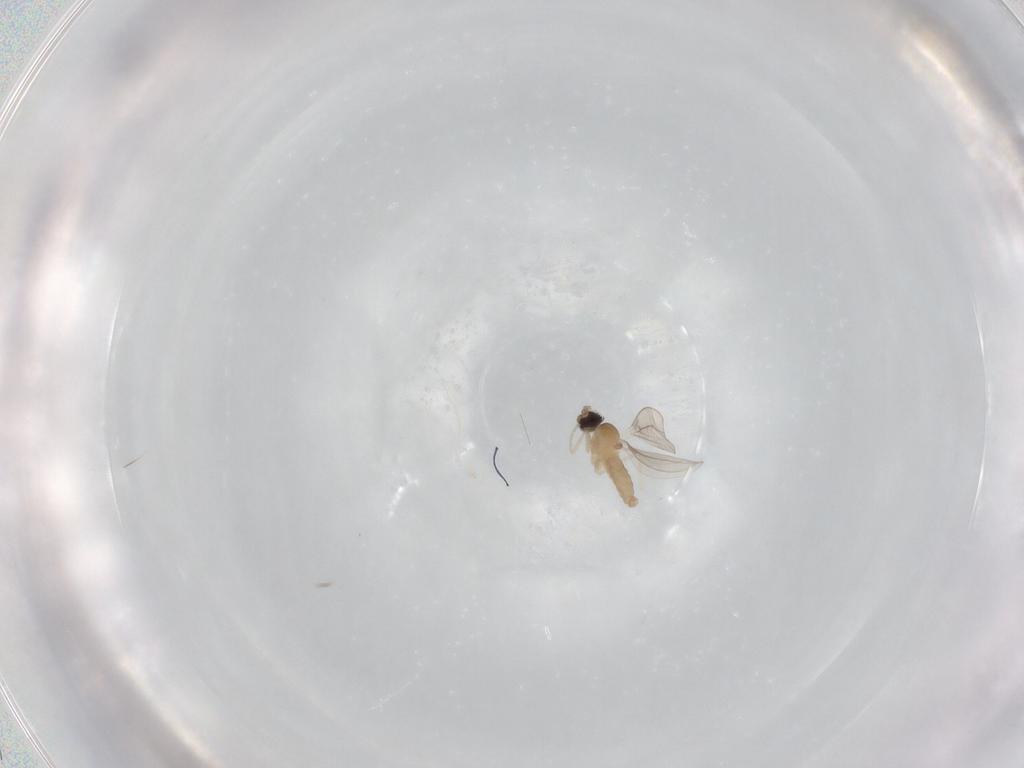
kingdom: Animalia
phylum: Arthropoda
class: Insecta
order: Diptera
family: Cecidomyiidae
